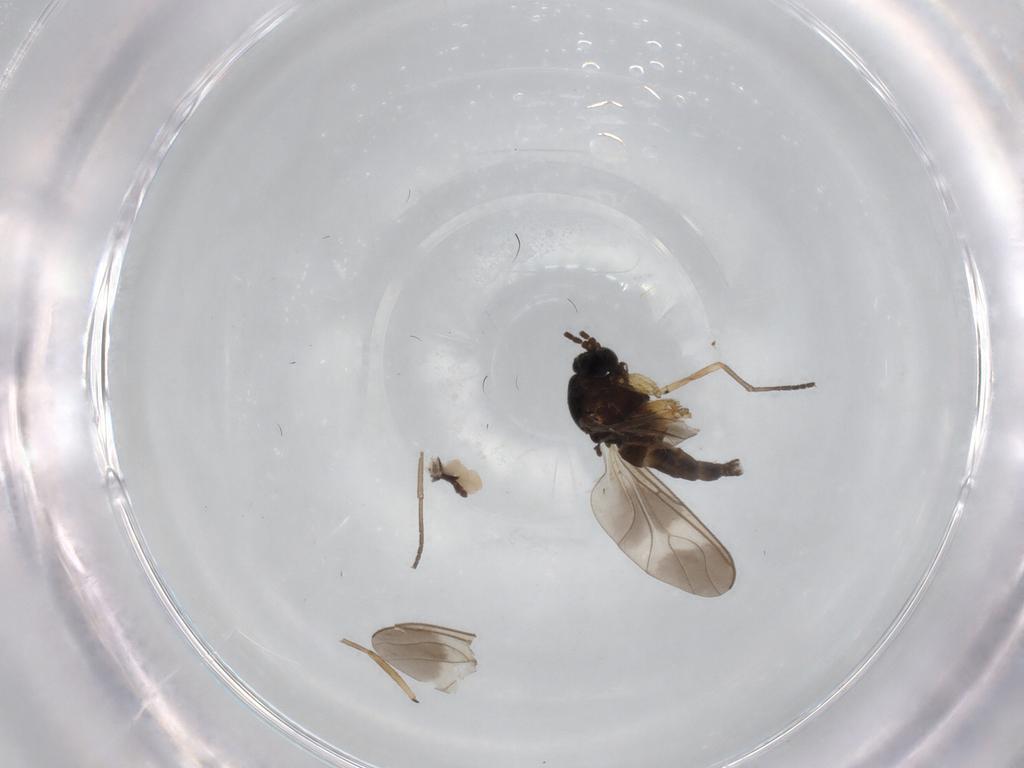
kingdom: Animalia
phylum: Arthropoda
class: Insecta
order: Diptera
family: Sciaridae
